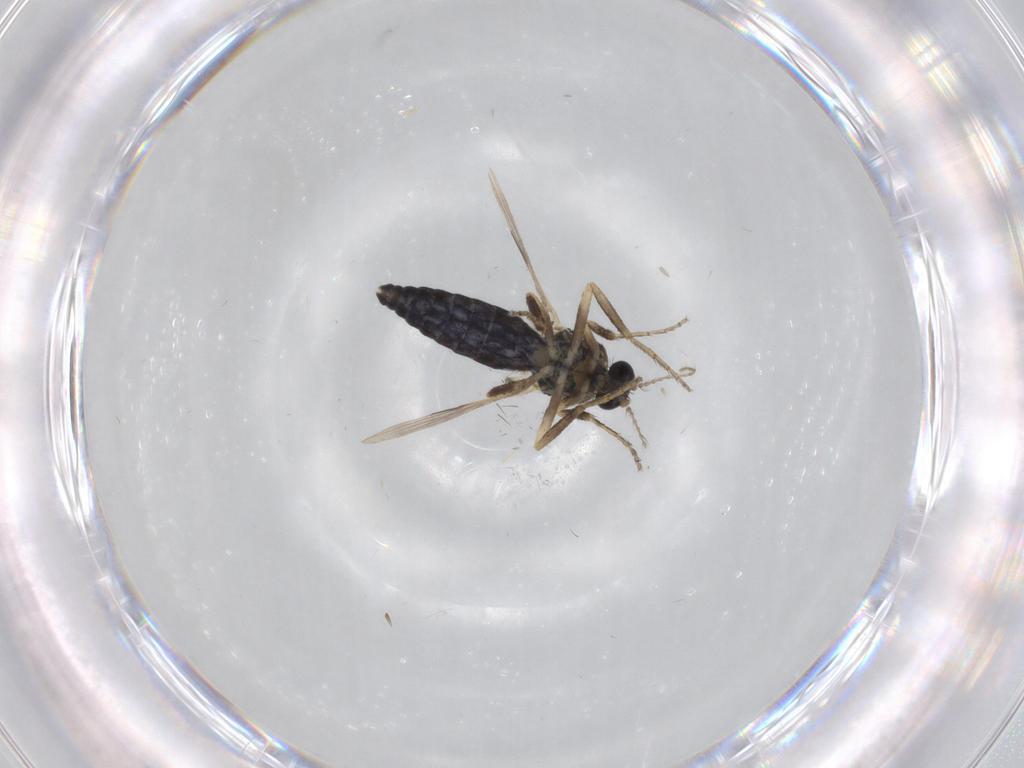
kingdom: Animalia
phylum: Arthropoda
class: Insecta
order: Diptera
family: Ceratopogonidae
